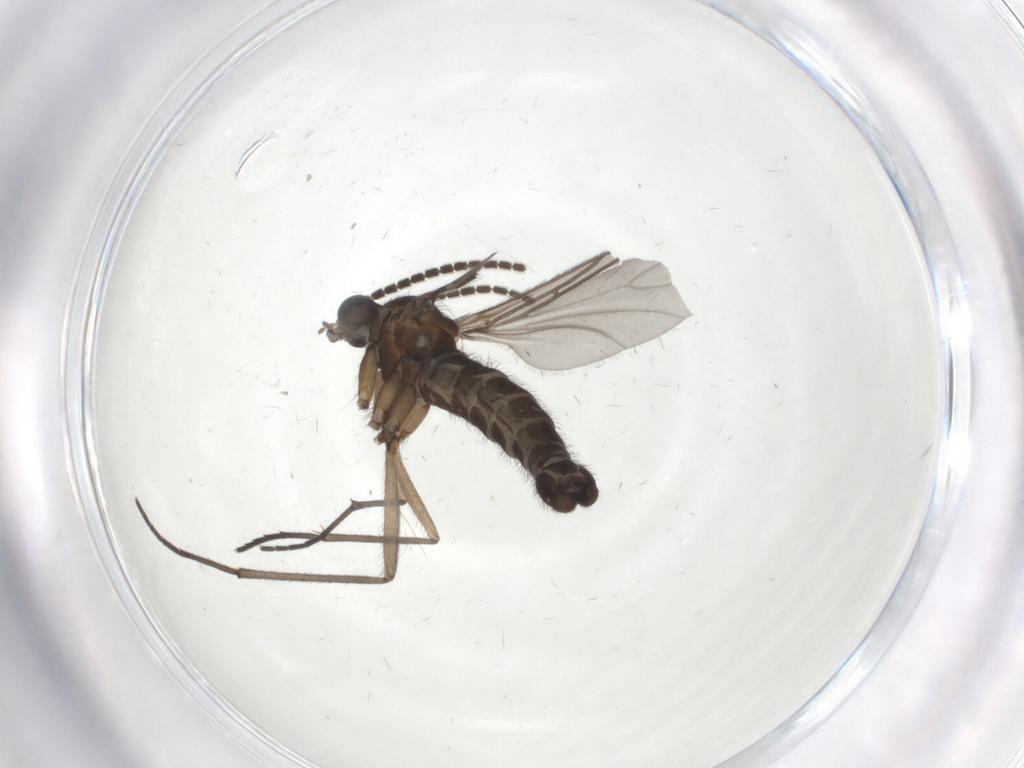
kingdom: Animalia
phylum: Arthropoda
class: Insecta
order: Diptera
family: Sciaridae
